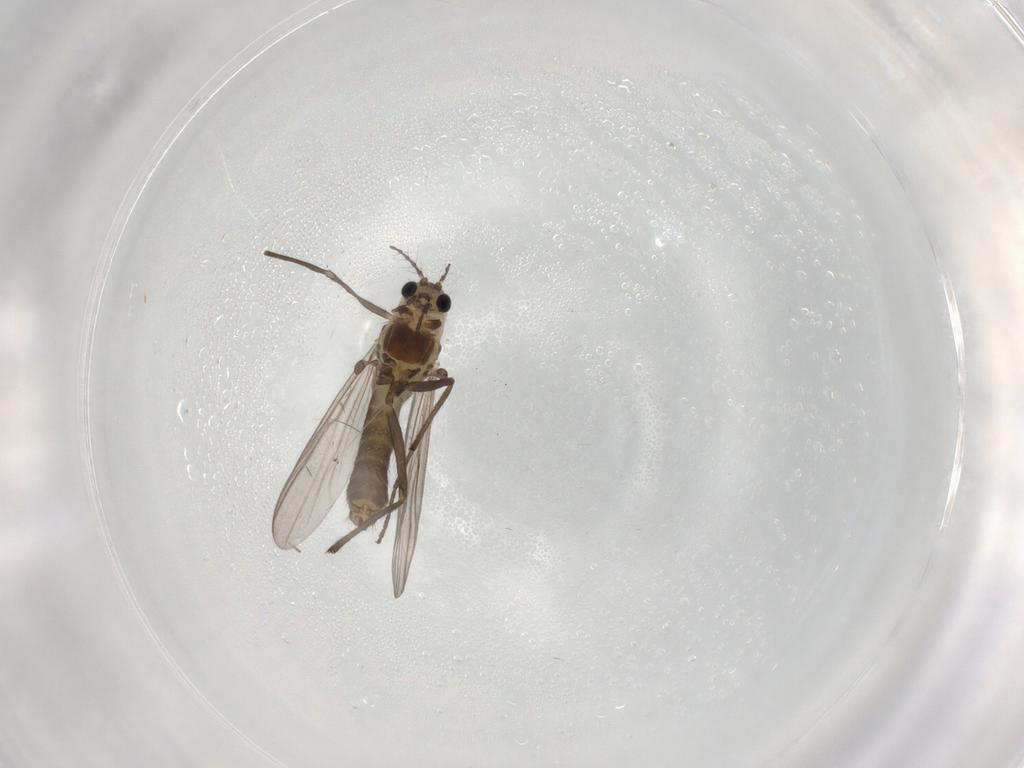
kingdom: Animalia
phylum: Arthropoda
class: Insecta
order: Diptera
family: Chironomidae
